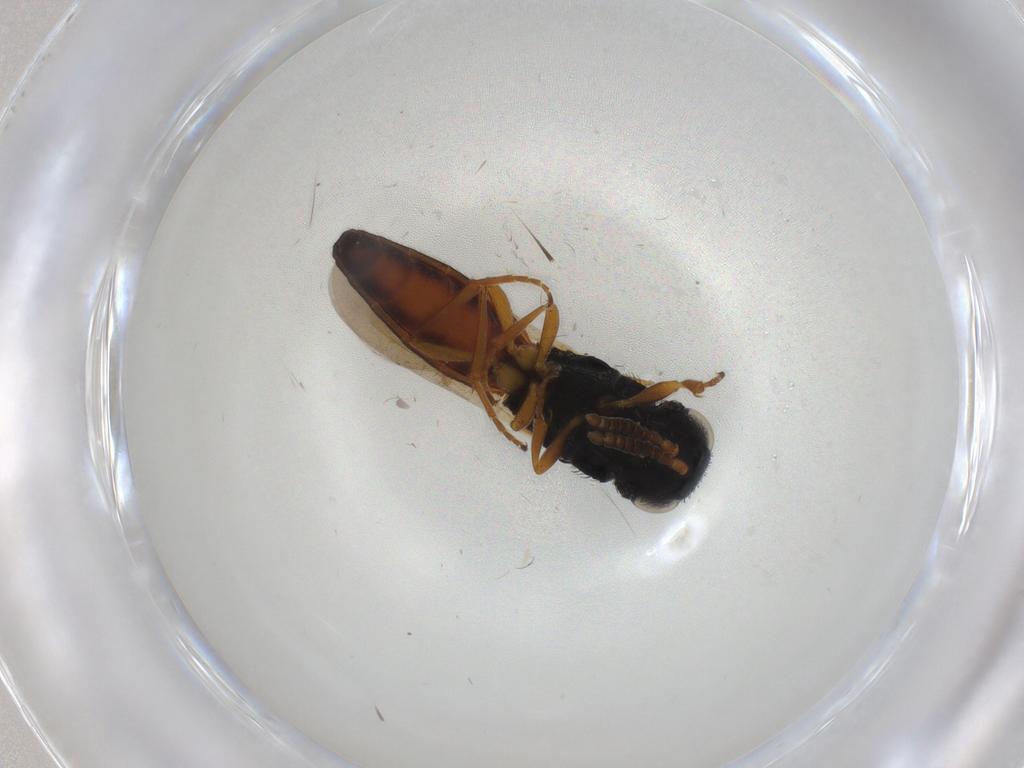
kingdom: Animalia
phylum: Arthropoda
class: Insecta
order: Hymenoptera
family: Scelionidae
